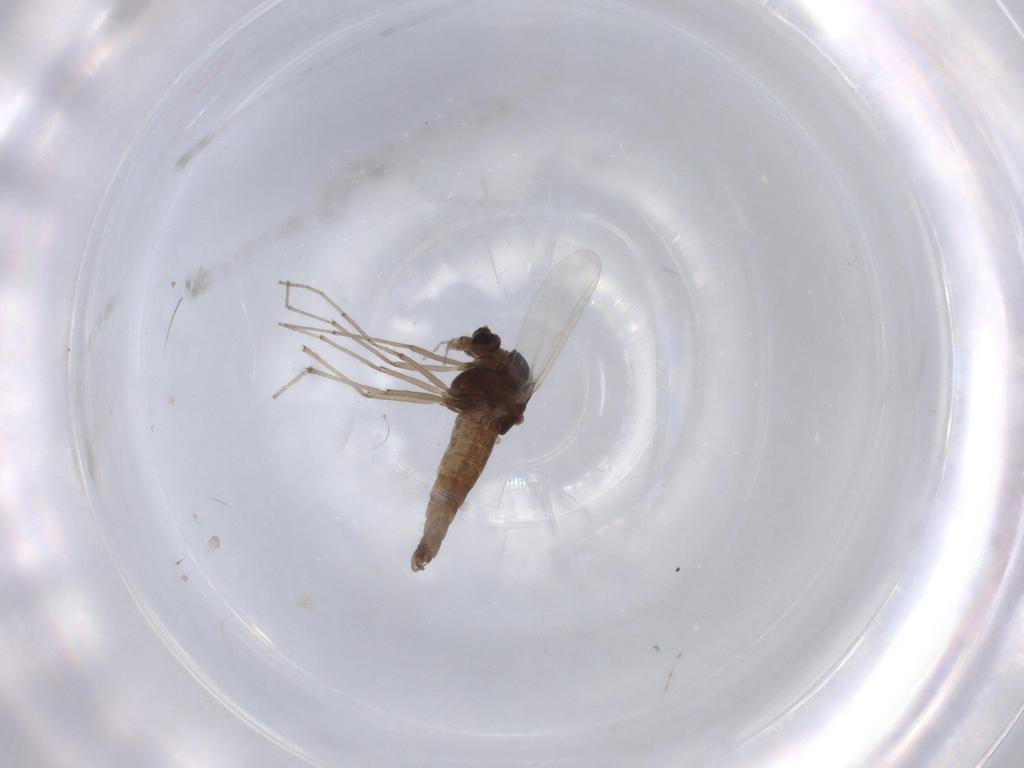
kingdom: Animalia
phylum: Arthropoda
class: Insecta
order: Diptera
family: Chironomidae
